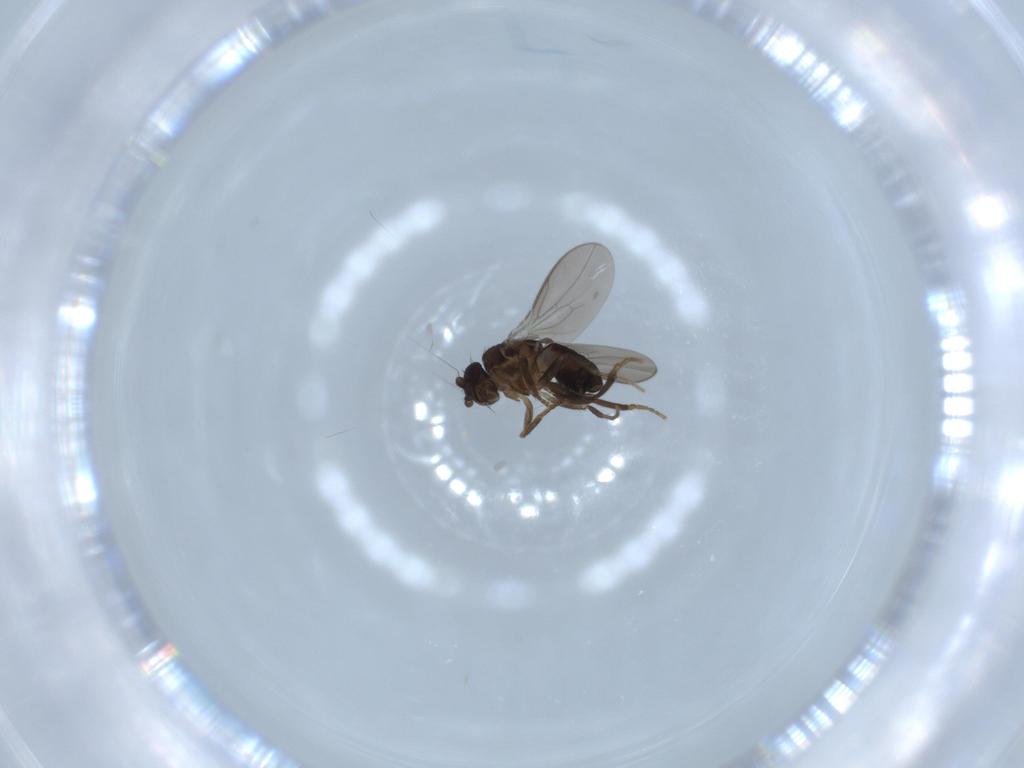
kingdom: Animalia
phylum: Arthropoda
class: Insecta
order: Diptera
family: Sphaeroceridae
